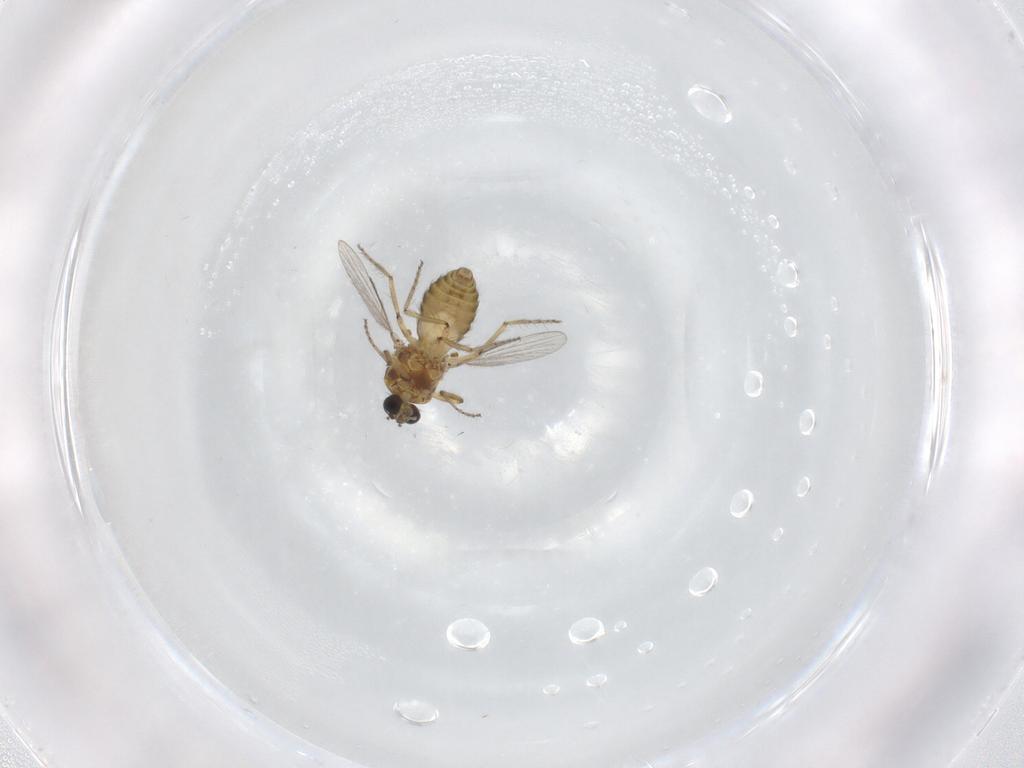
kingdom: Animalia
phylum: Arthropoda
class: Insecta
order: Diptera
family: Ceratopogonidae
